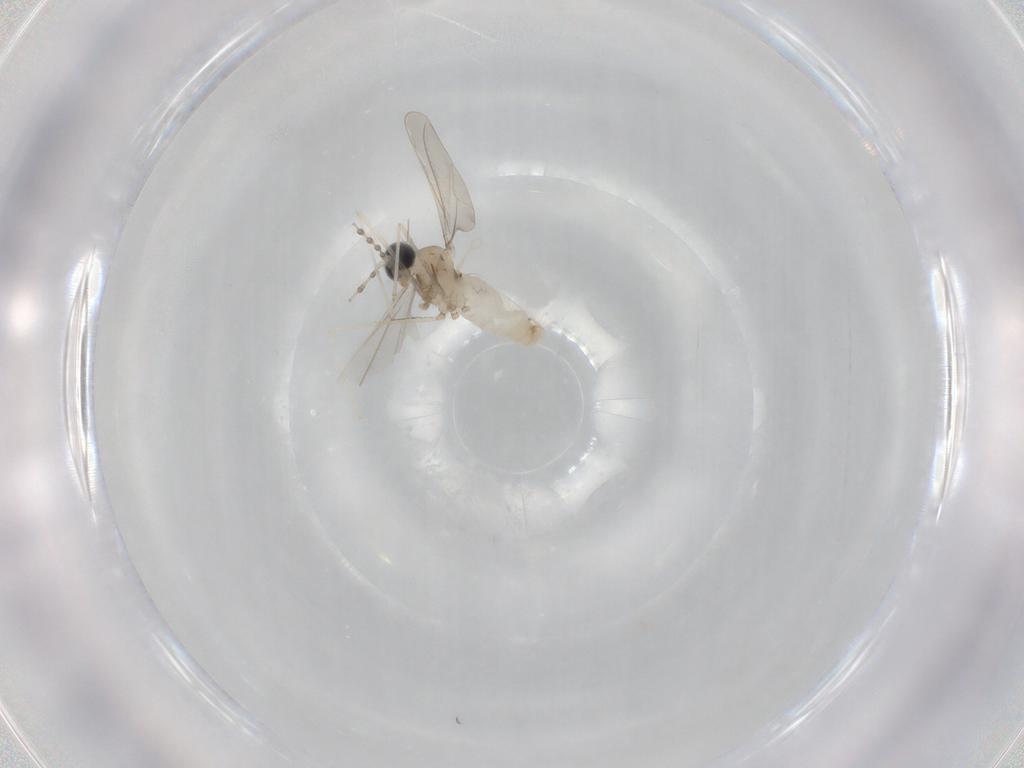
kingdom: Animalia
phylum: Arthropoda
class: Insecta
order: Diptera
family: Cecidomyiidae
